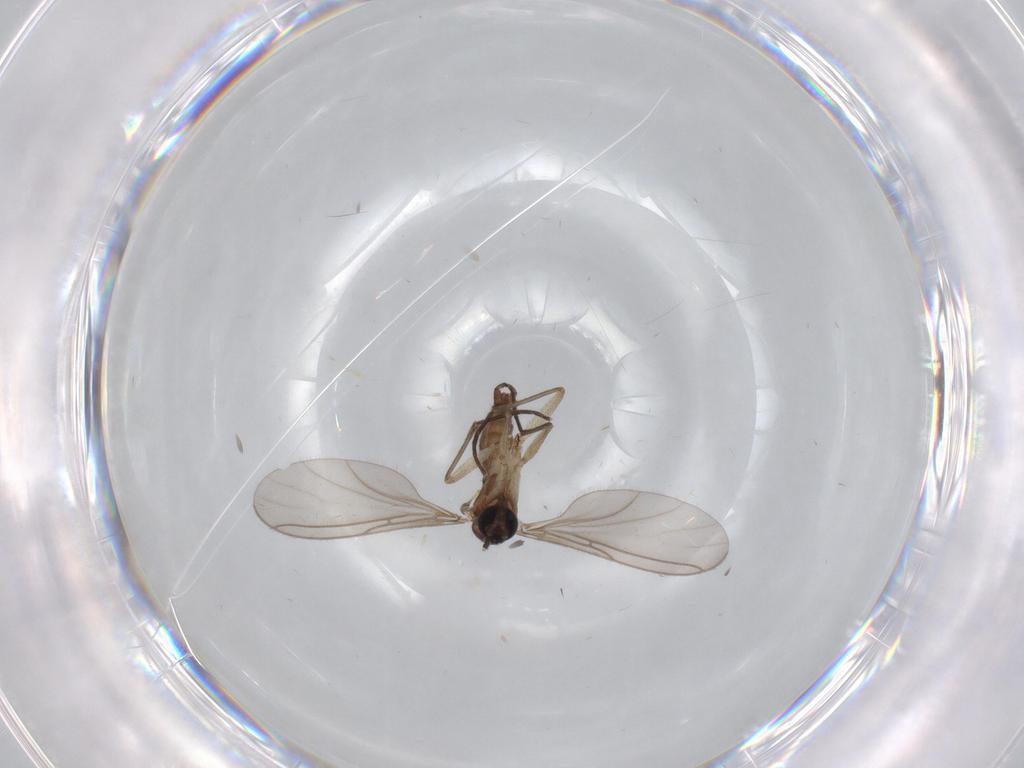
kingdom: Animalia
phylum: Arthropoda
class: Insecta
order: Diptera
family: Sciaridae
